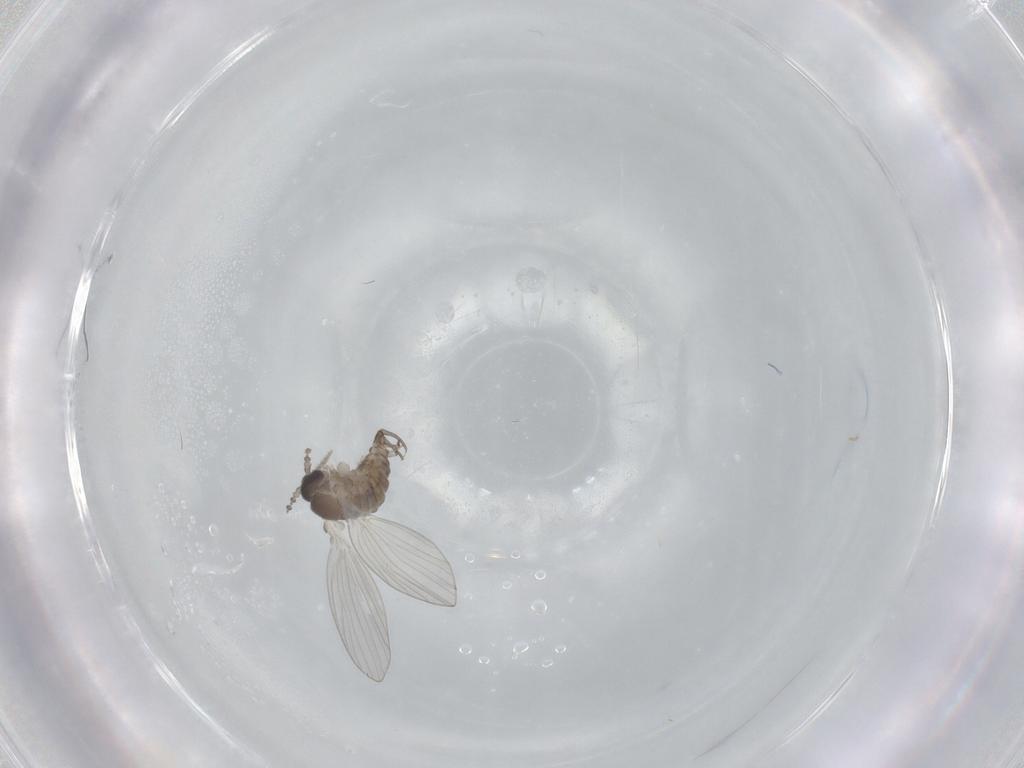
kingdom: Animalia
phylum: Arthropoda
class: Insecta
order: Diptera
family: Psychodidae
